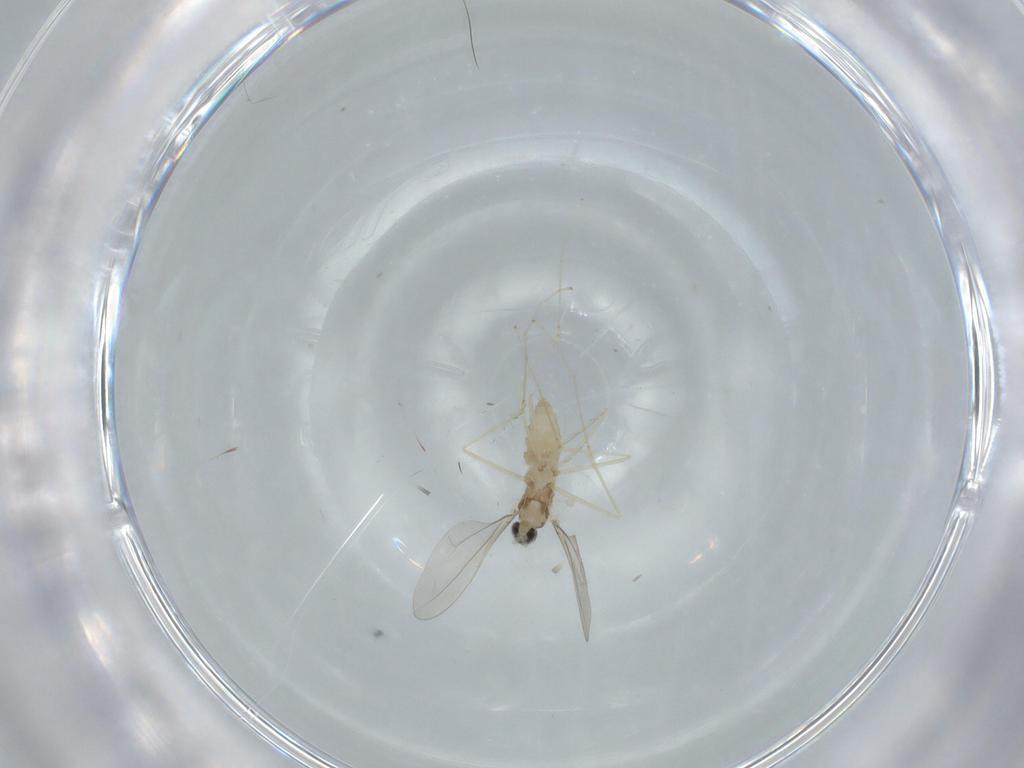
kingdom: Animalia
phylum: Arthropoda
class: Insecta
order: Diptera
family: Cecidomyiidae
